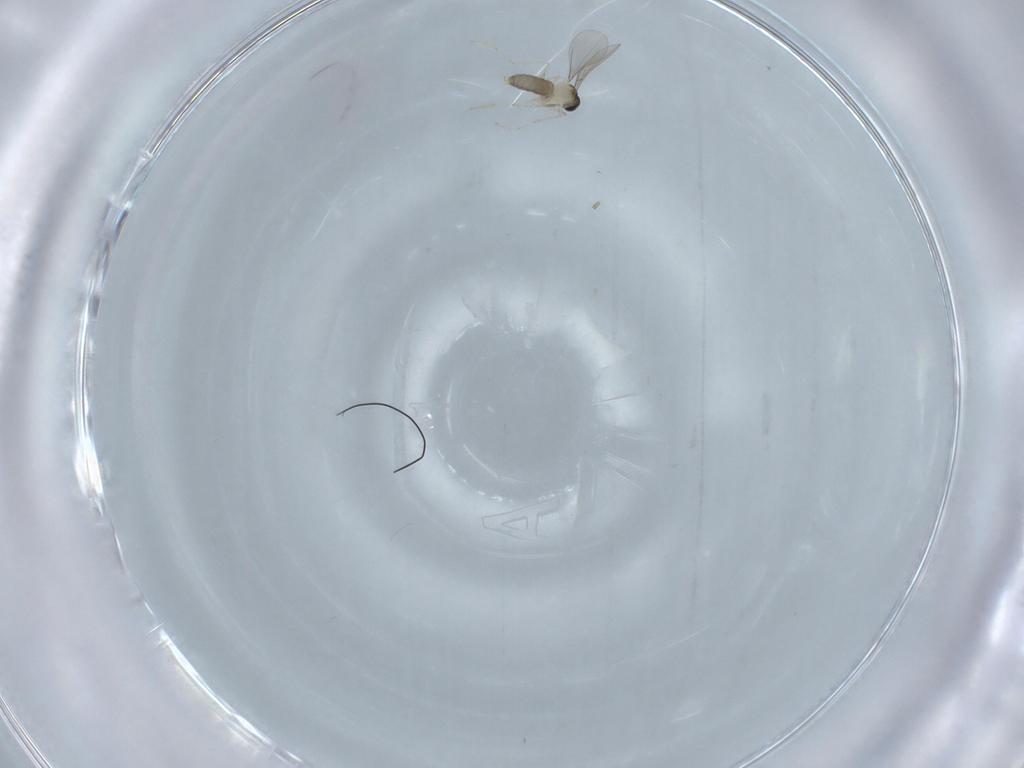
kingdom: Animalia
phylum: Arthropoda
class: Insecta
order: Diptera
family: Cecidomyiidae
